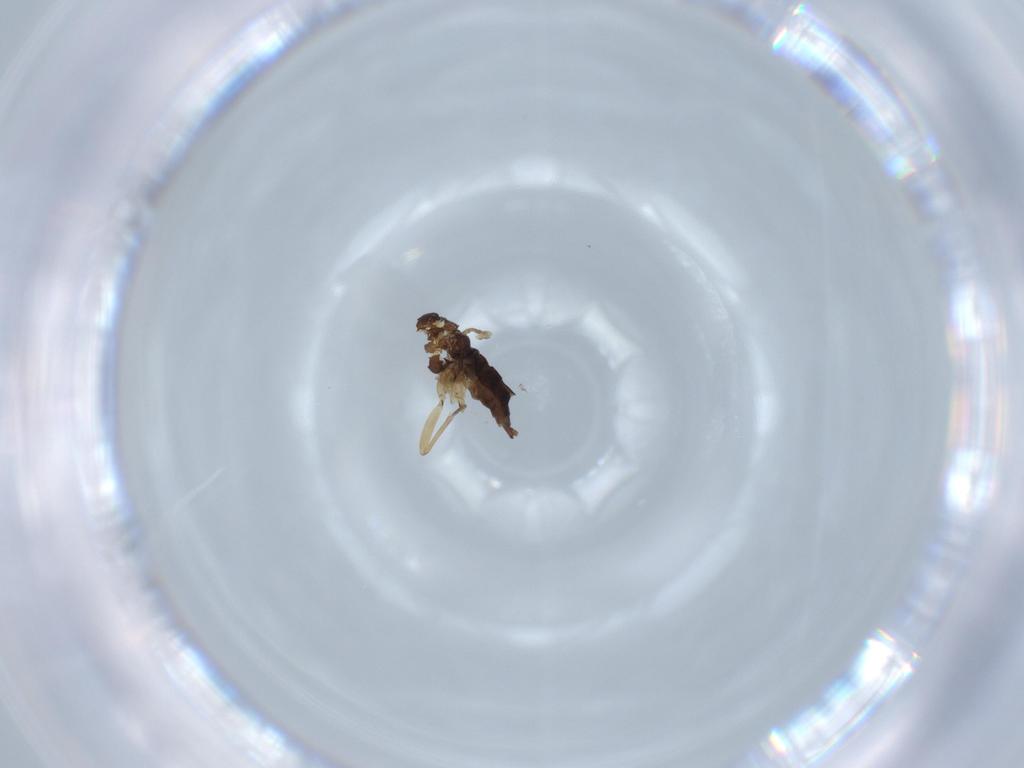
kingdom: Animalia
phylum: Arthropoda
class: Insecta
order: Diptera
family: Sciaridae
